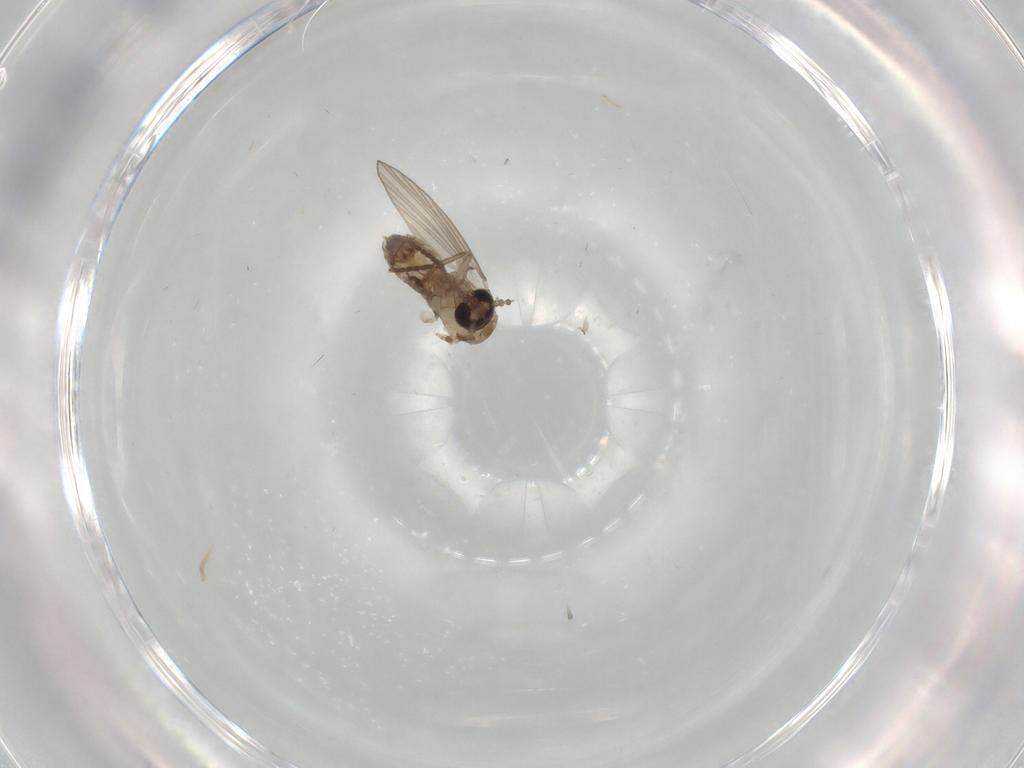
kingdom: Animalia
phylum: Arthropoda
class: Insecta
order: Diptera
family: Psychodidae
